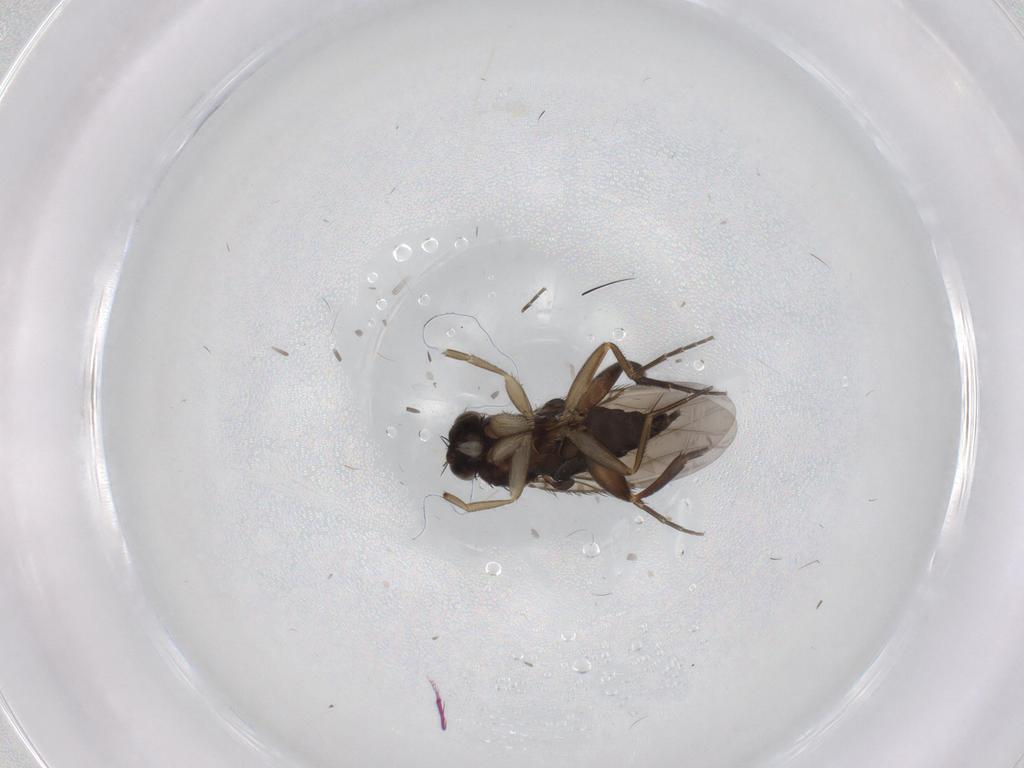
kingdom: Animalia
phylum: Arthropoda
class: Insecta
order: Diptera
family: Phoridae
